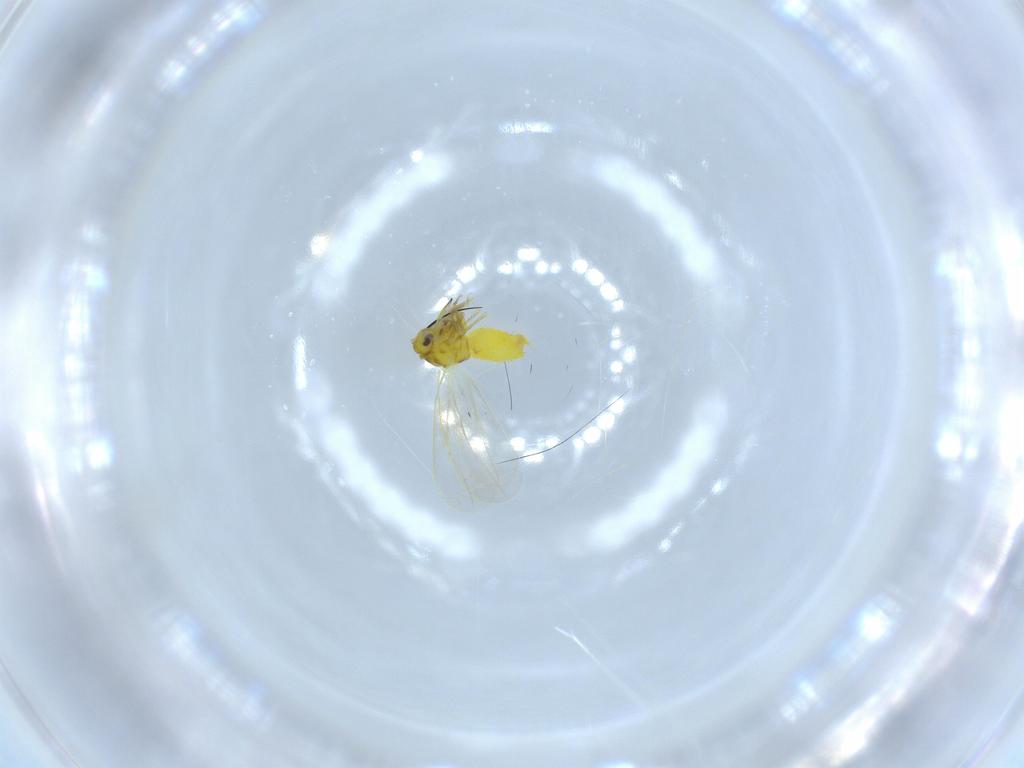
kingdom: Animalia
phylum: Arthropoda
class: Insecta
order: Hemiptera
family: Aleyrodidae
